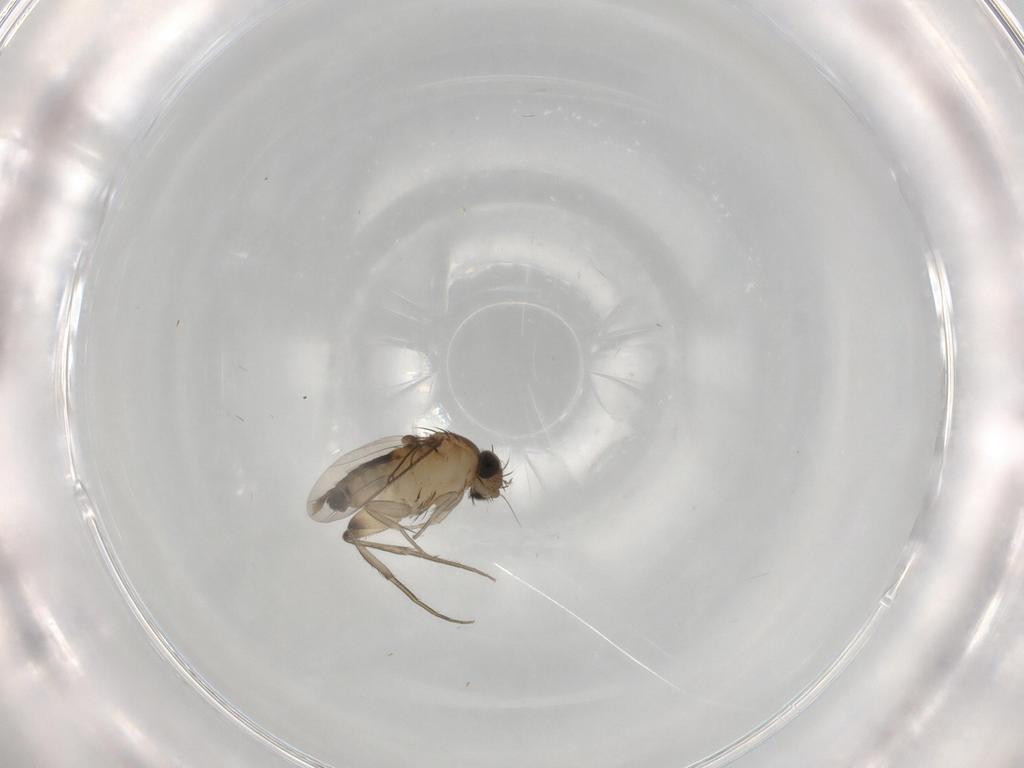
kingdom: Animalia
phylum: Arthropoda
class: Insecta
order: Diptera
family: Phoridae
